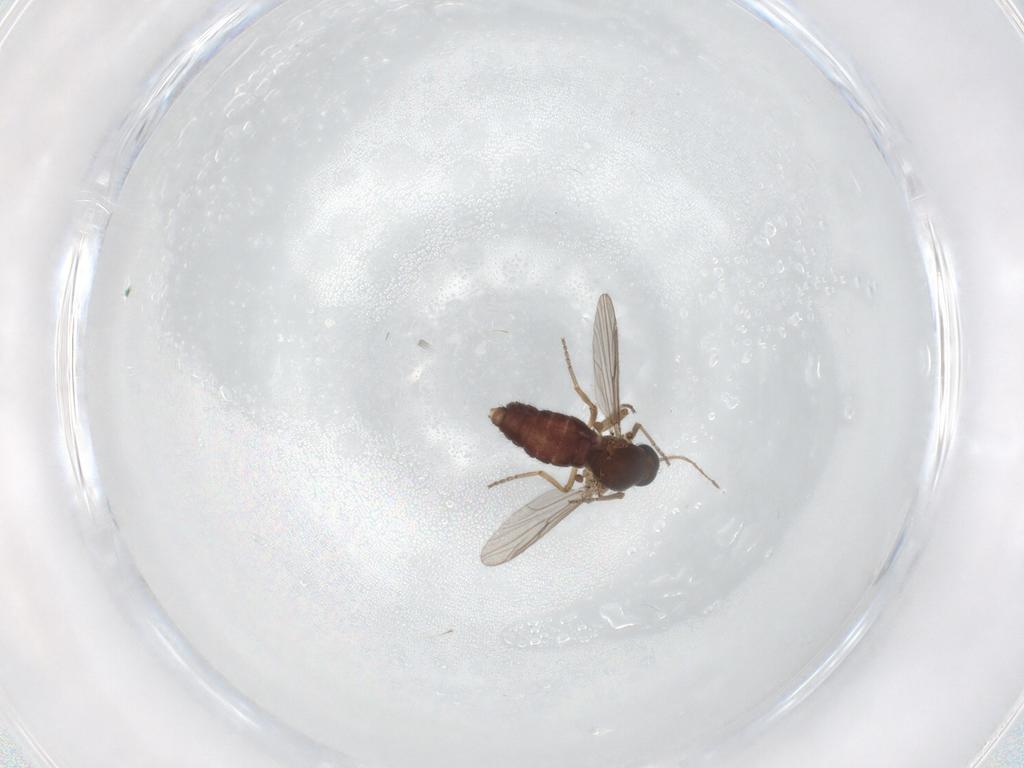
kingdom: Animalia
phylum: Arthropoda
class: Insecta
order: Diptera
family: Ceratopogonidae
